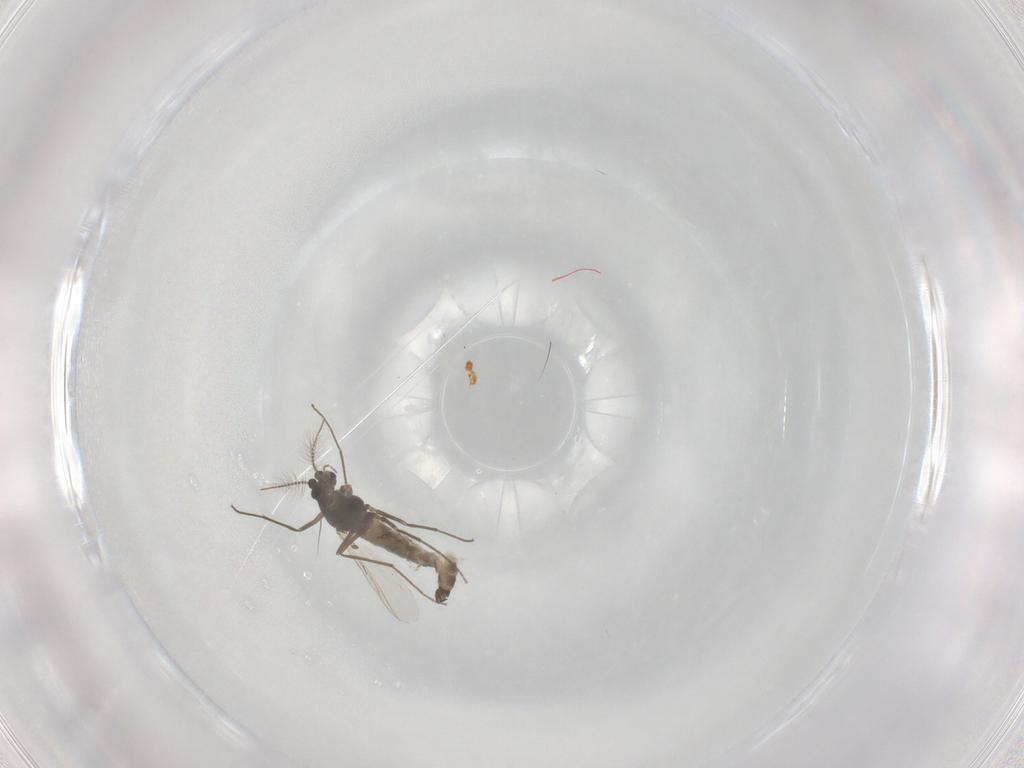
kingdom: Animalia
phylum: Arthropoda
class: Insecta
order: Diptera
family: Chironomidae
